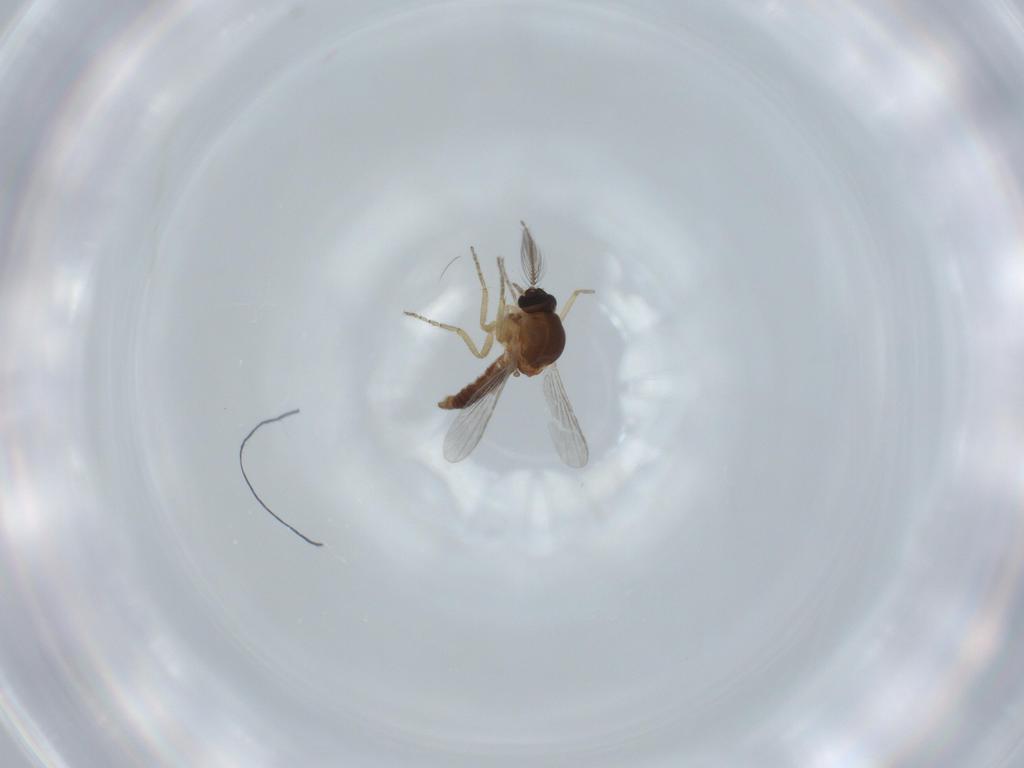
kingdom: Animalia
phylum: Arthropoda
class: Insecta
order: Diptera
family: Ceratopogonidae
